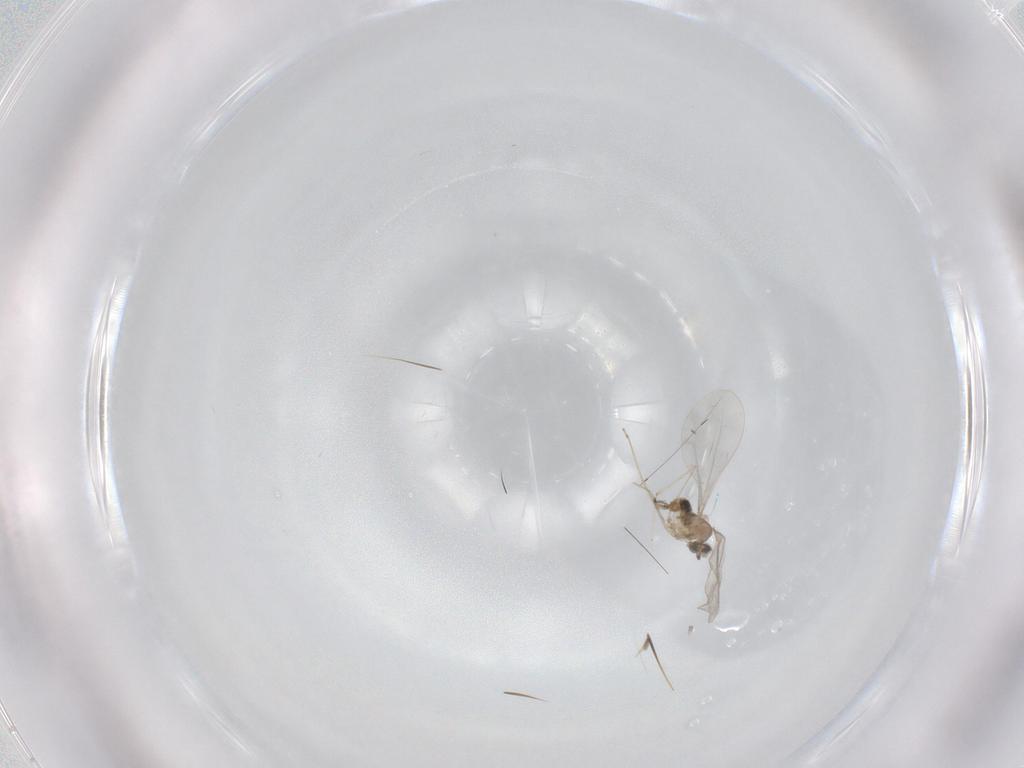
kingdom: Animalia
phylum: Arthropoda
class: Insecta
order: Diptera
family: Cecidomyiidae
